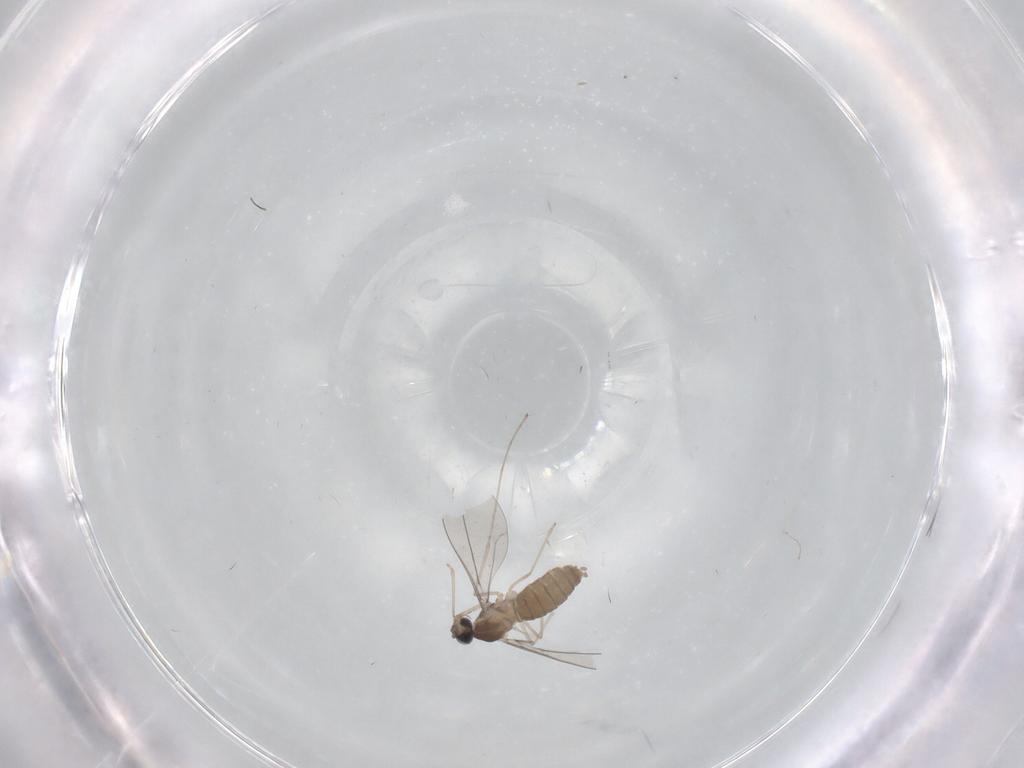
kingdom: Animalia
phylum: Arthropoda
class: Insecta
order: Diptera
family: Cecidomyiidae
